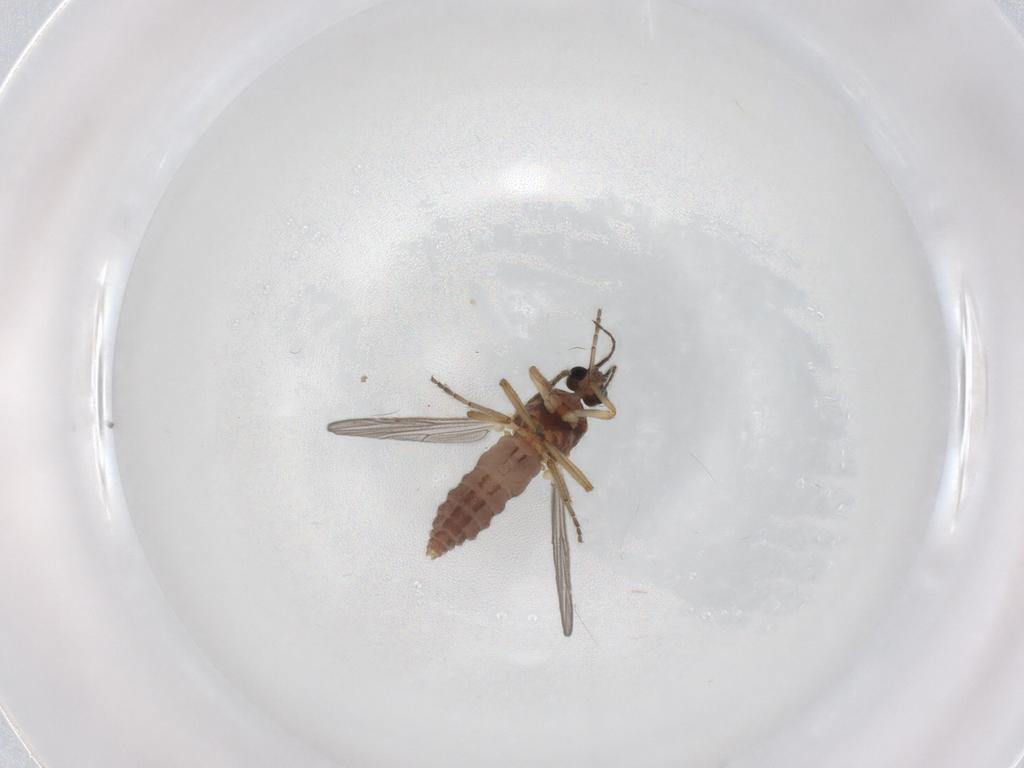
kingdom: Animalia
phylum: Arthropoda
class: Insecta
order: Diptera
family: Ceratopogonidae
